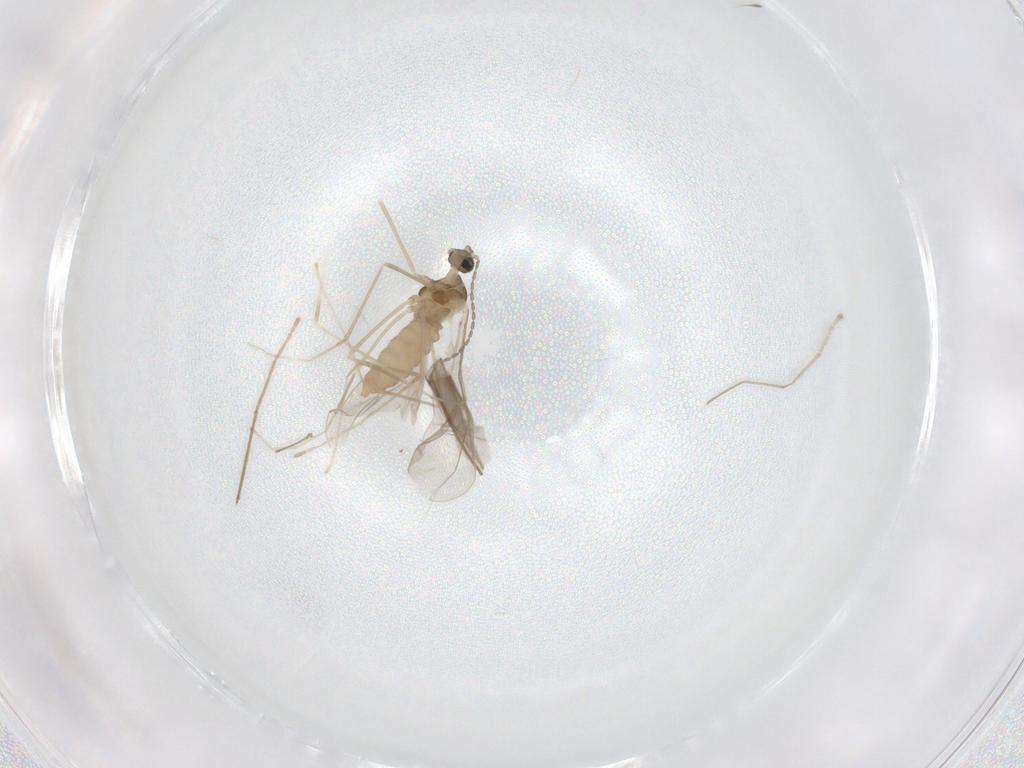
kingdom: Animalia
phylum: Arthropoda
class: Insecta
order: Diptera
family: Cecidomyiidae
